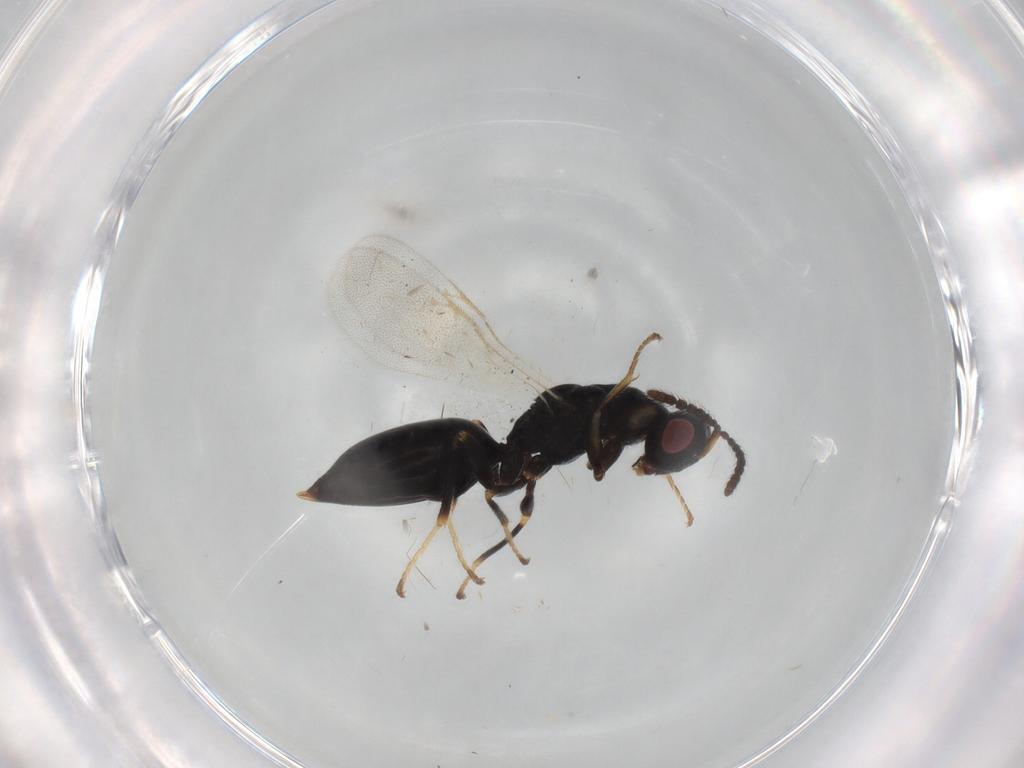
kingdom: Animalia
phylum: Arthropoda
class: Insecta
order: Hymenoptera
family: Eurytomidae
